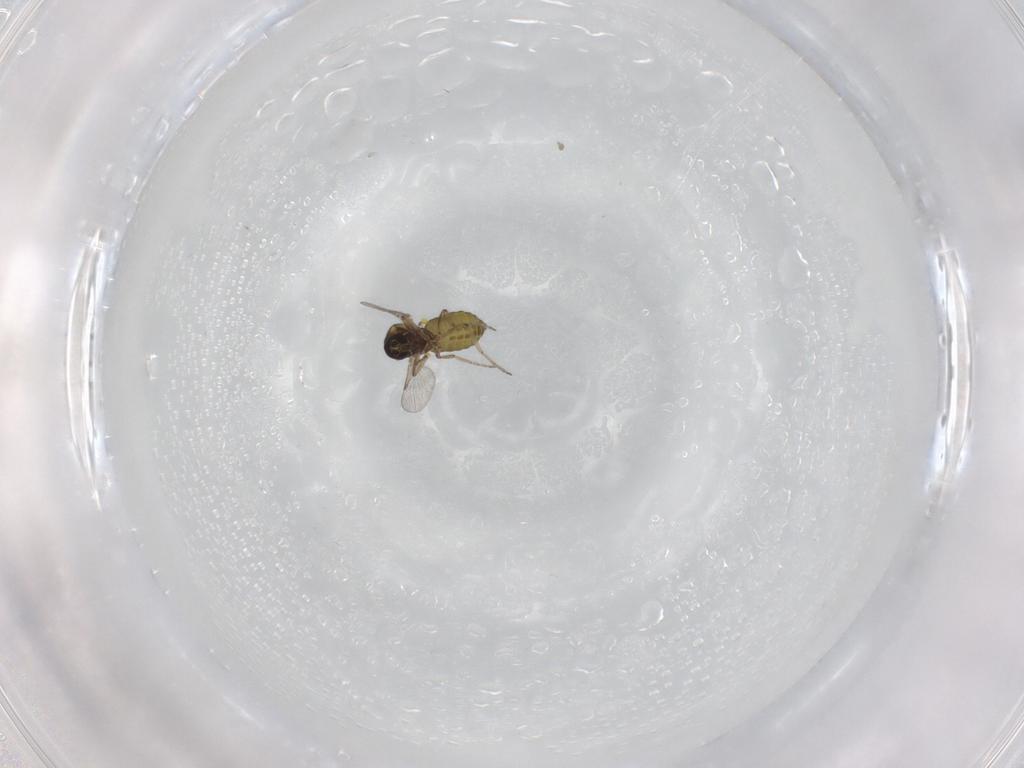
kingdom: Animalia
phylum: Arthropoda
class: Insecta
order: Diptera
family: Ceratopogonidae
